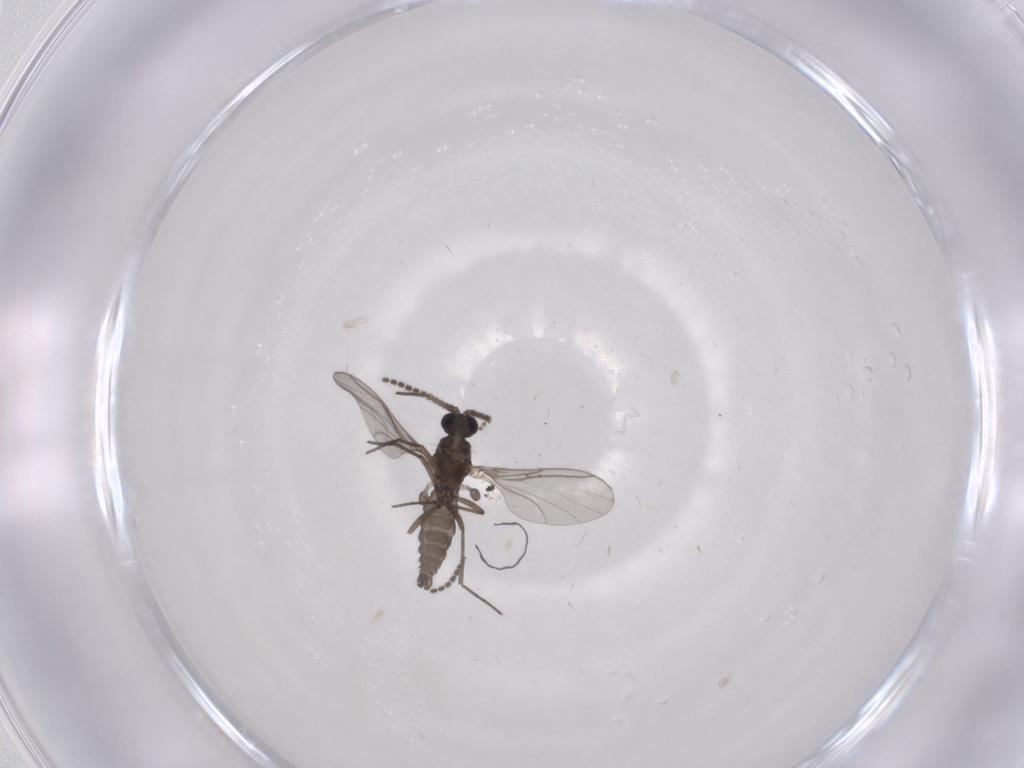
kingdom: Animalia
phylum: Arthropoda
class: Insecta
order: Diptera
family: Sciaridae
